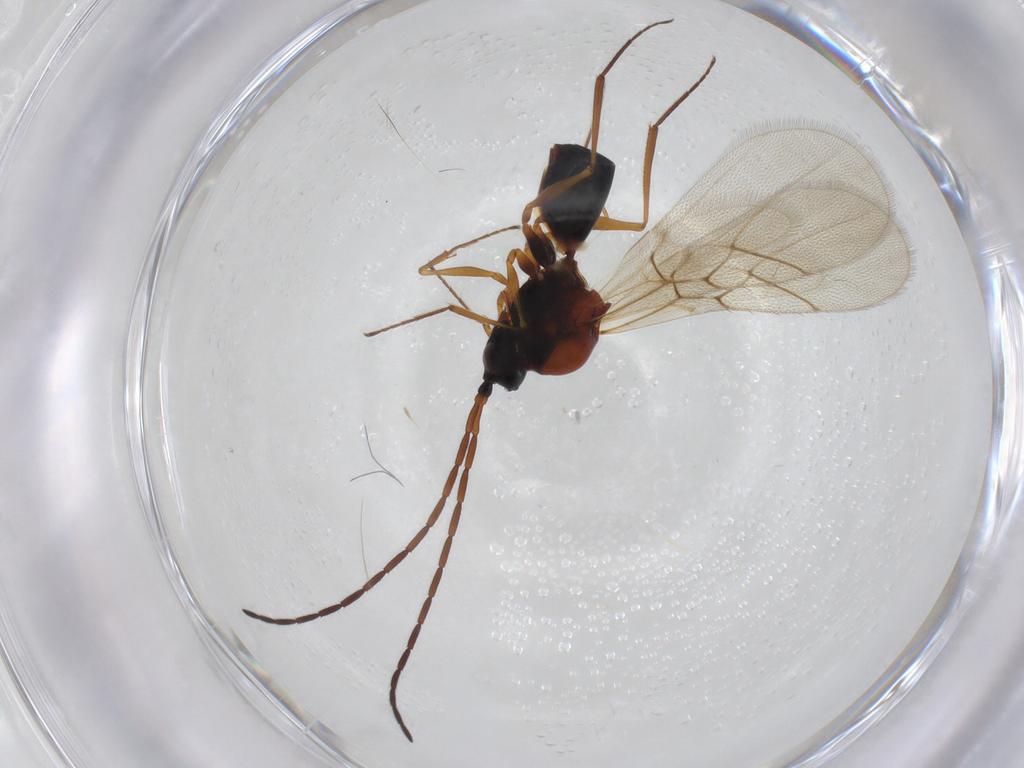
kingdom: Animalia
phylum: Arthropoda
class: Insecta
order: Hymenoptera
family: Figitidae
